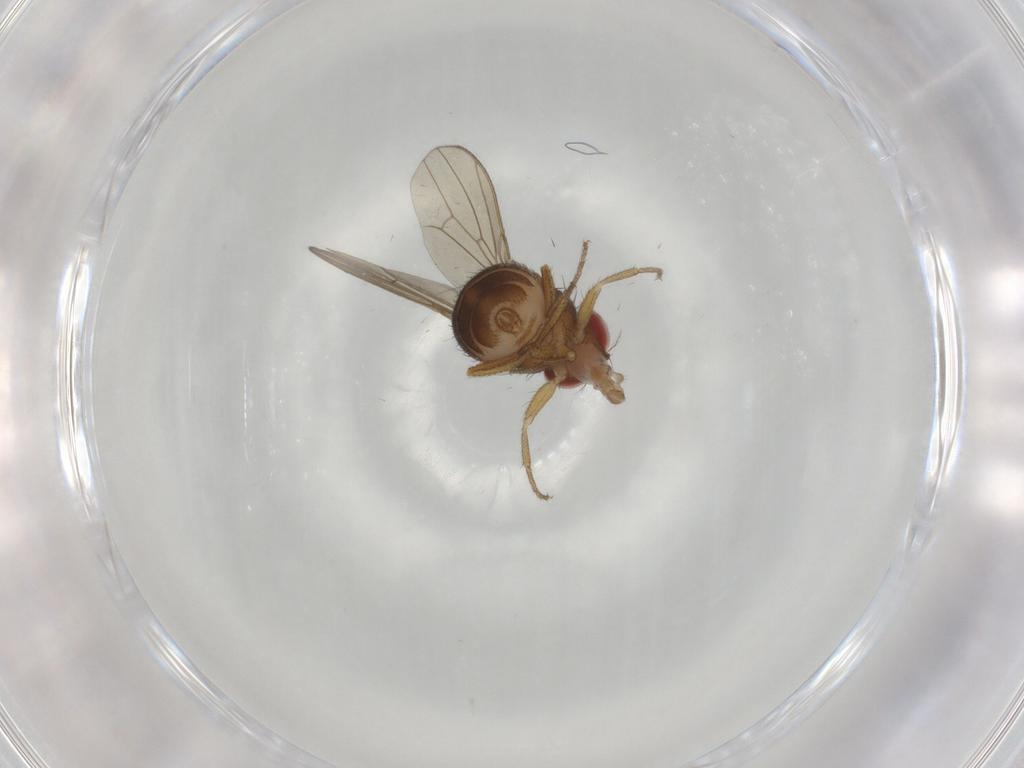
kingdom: Animalia
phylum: Arthropoda
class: Insecta
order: Diptera
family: Drosophilidae
